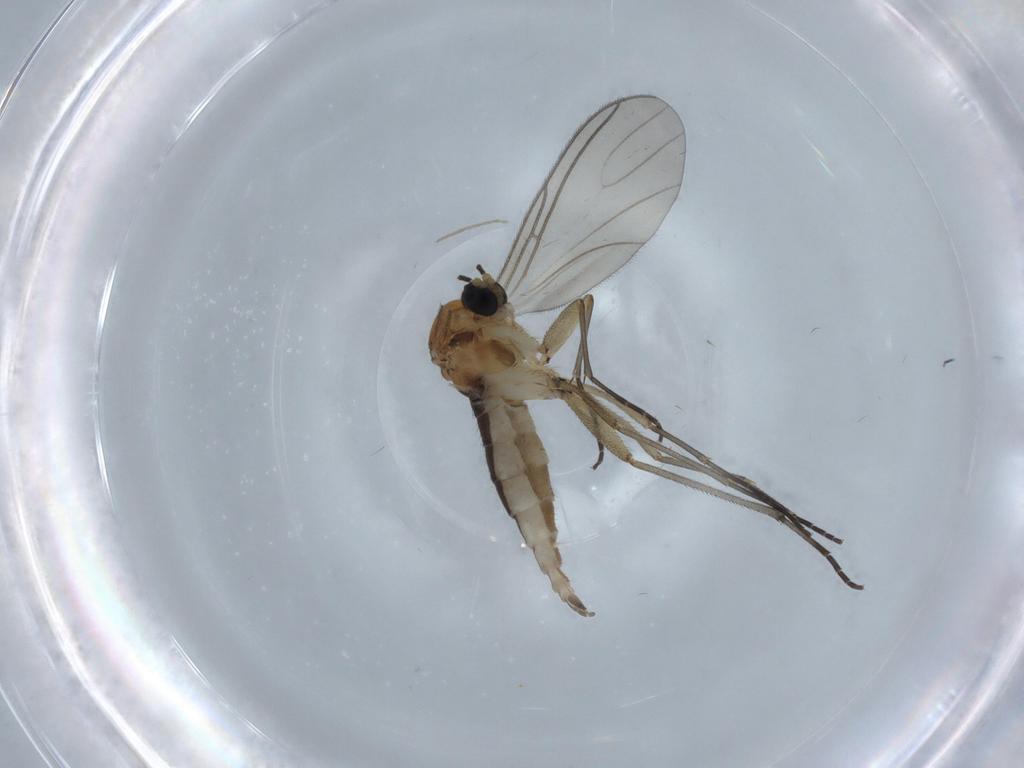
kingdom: Animalia
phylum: Arthropoda
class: Insecta
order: Diptera
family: Sciaridae
